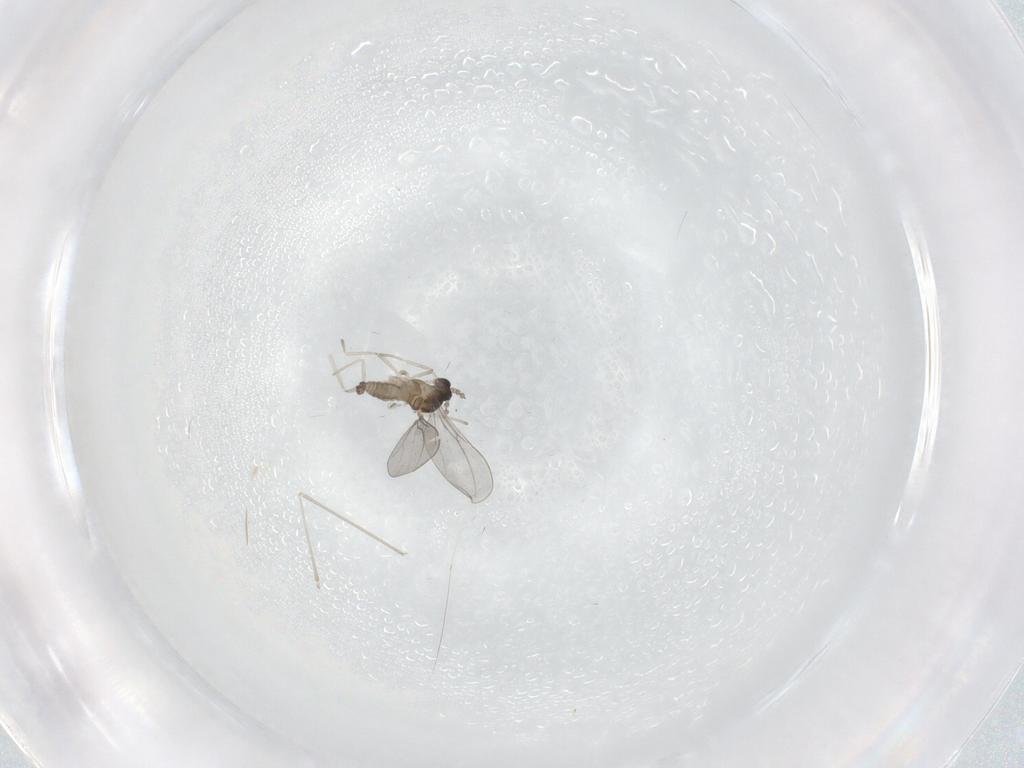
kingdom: Animalia
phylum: Arthropoda
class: Insecta
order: Diptera
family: Cecidomyiidae
